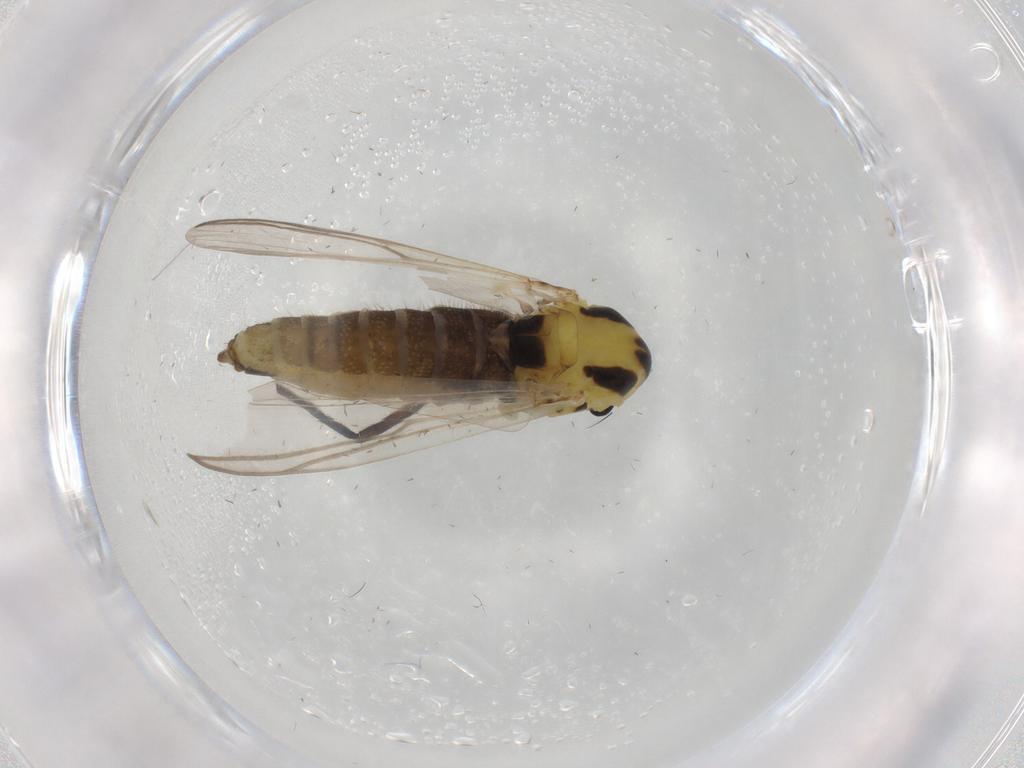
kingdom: Animalia
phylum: Arthropoda
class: Insecta
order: Diptera
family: Chironomidae
